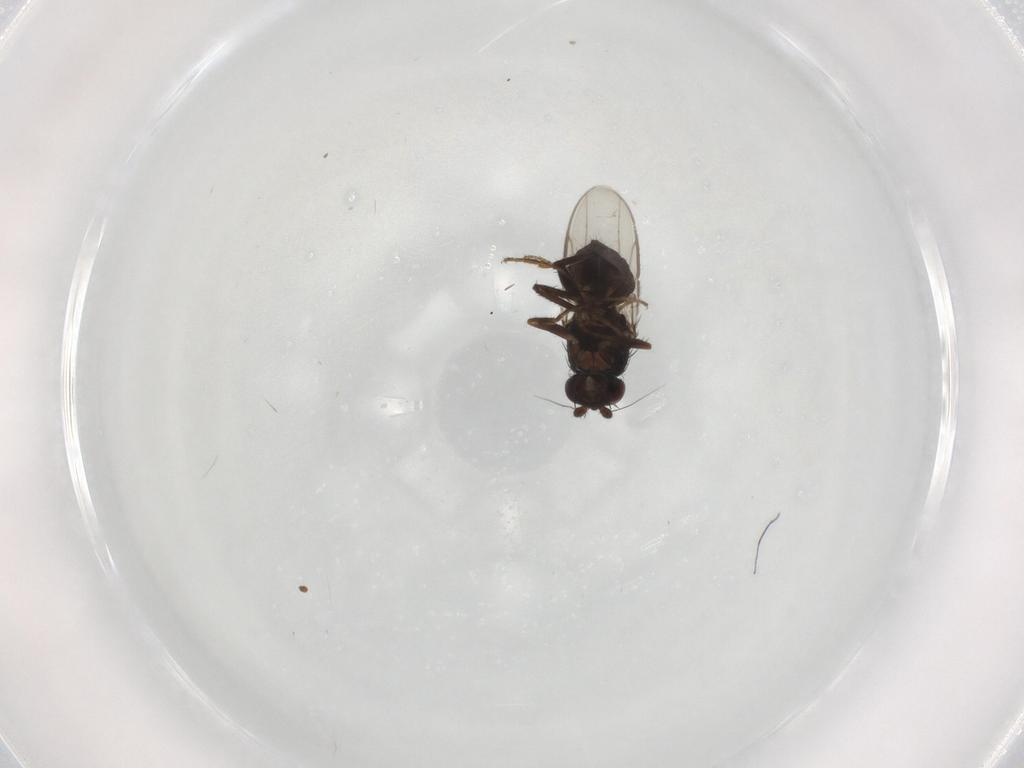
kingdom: Animalia
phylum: Arthropoda
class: Insecta
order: Diptera
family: Sphaeroceridae
